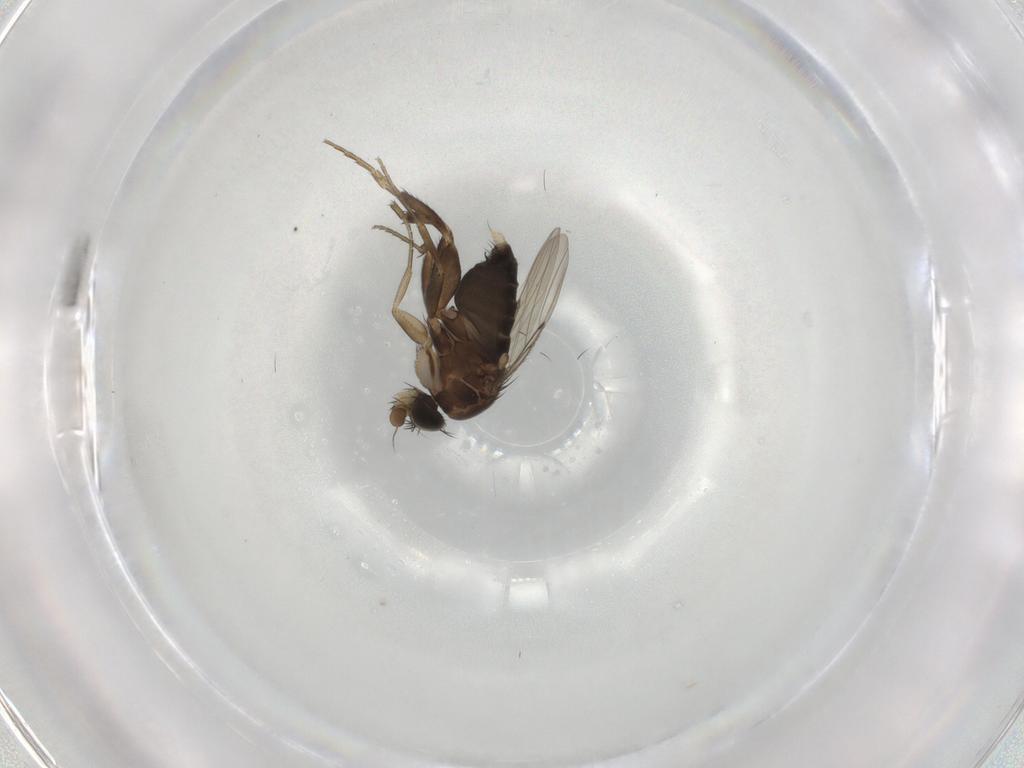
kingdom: Animalia
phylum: Arthropoda
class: Insecta
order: Diptera
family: Phoridae
